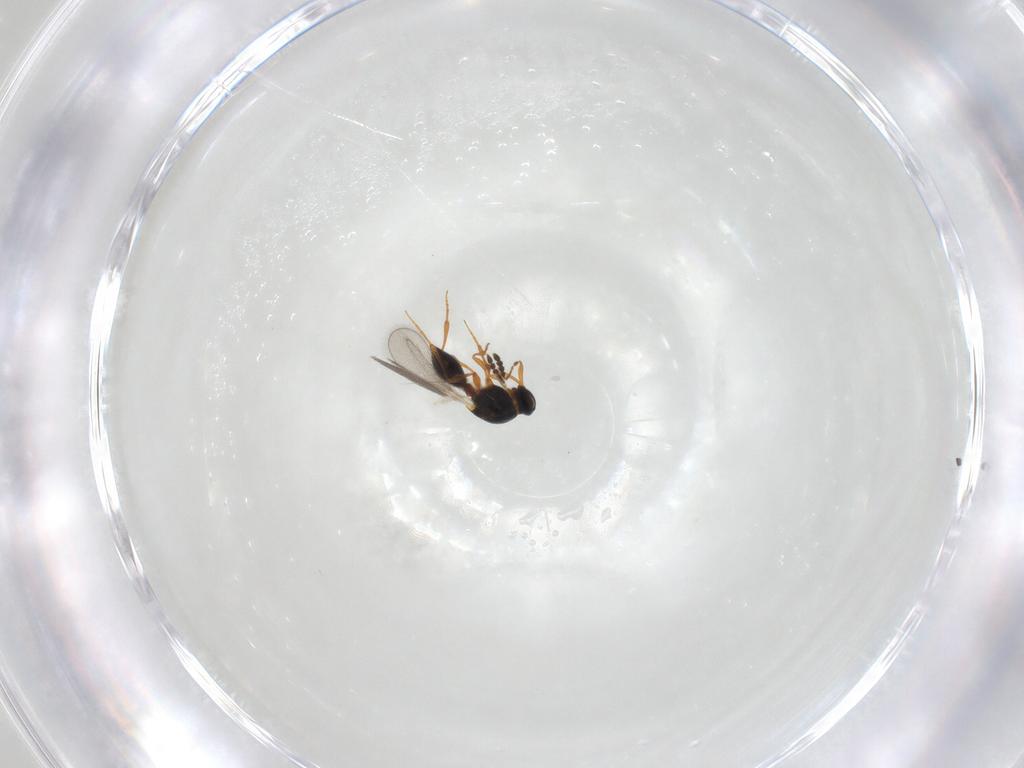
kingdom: Animalia
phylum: Arthropoda
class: Insecta
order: Hymenoptera
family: Platygastridae
